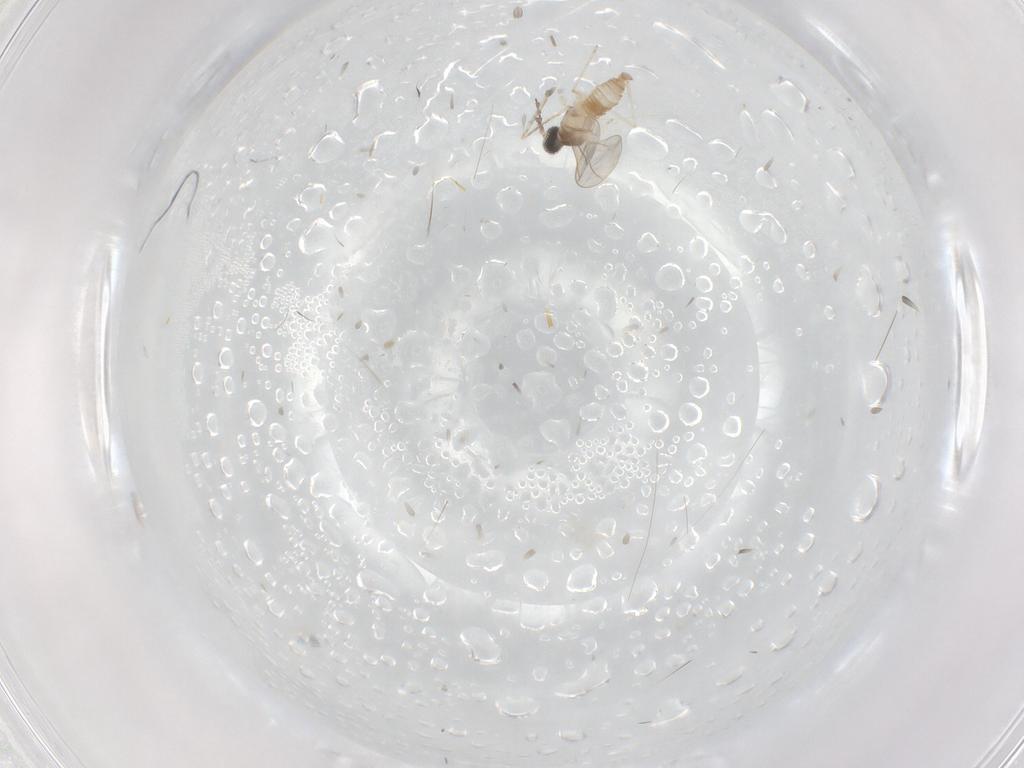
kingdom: Animalia
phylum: Arthropoda
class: Insecta
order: Diptera
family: Cecidomyiidae
